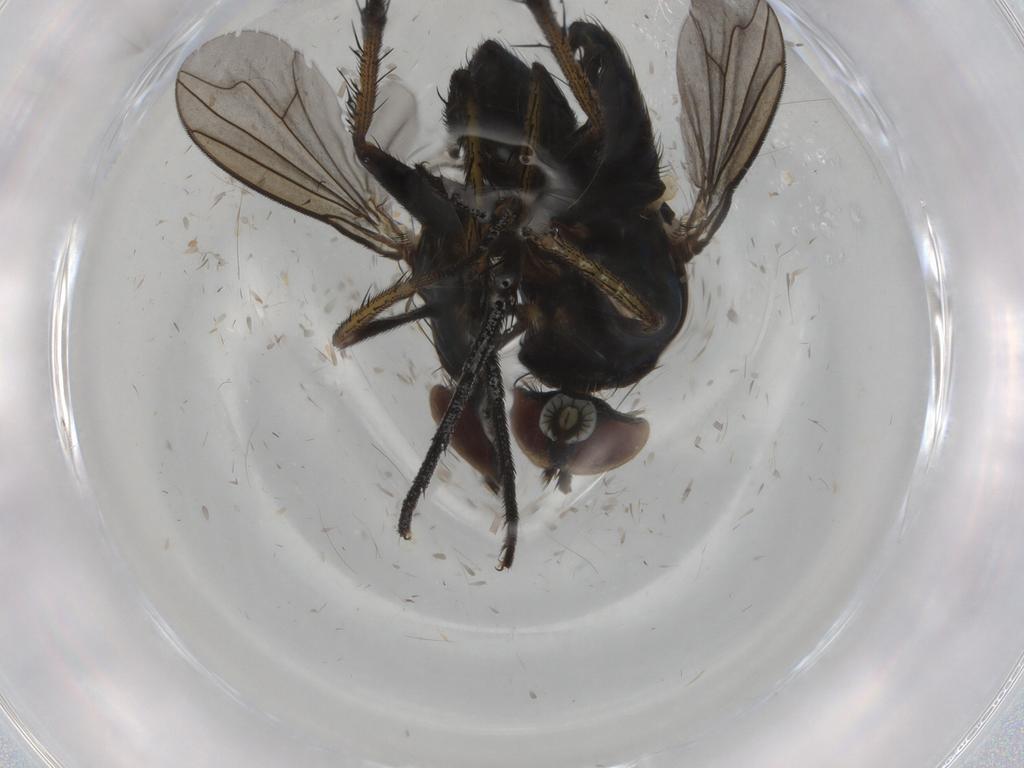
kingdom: Animalia
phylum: Arthropoda
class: Insecta
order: Diptera
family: Dolichopodidae
